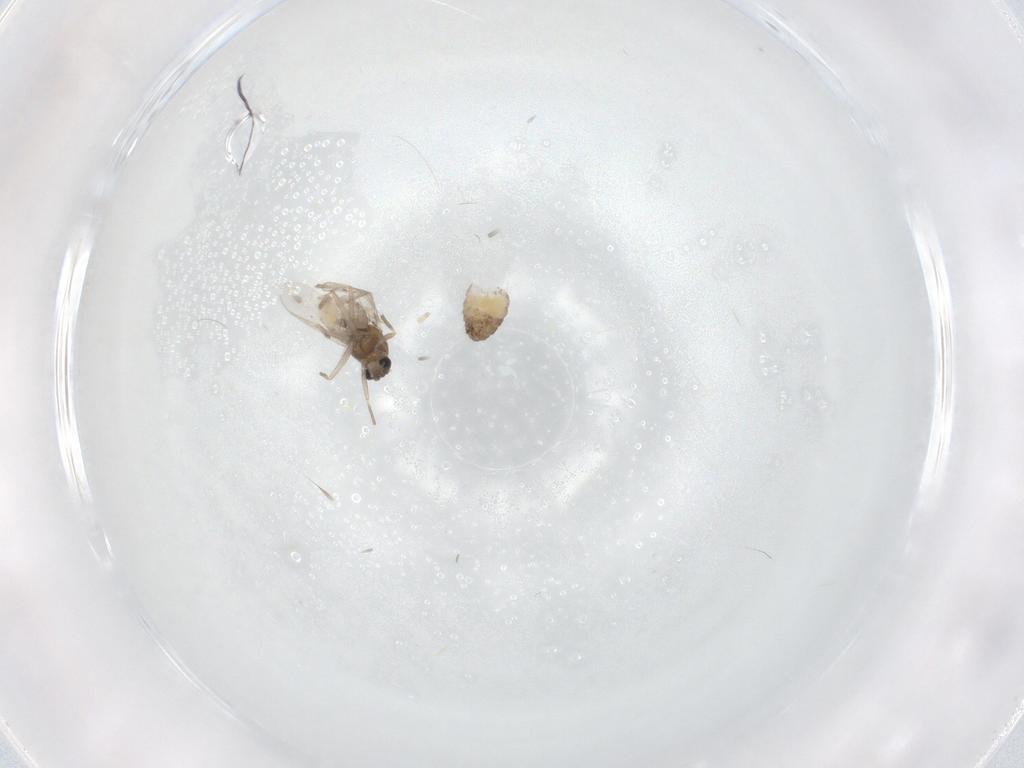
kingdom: Animalia
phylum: Arthropoda
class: Insecta
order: Diptera
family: Chironomidae
